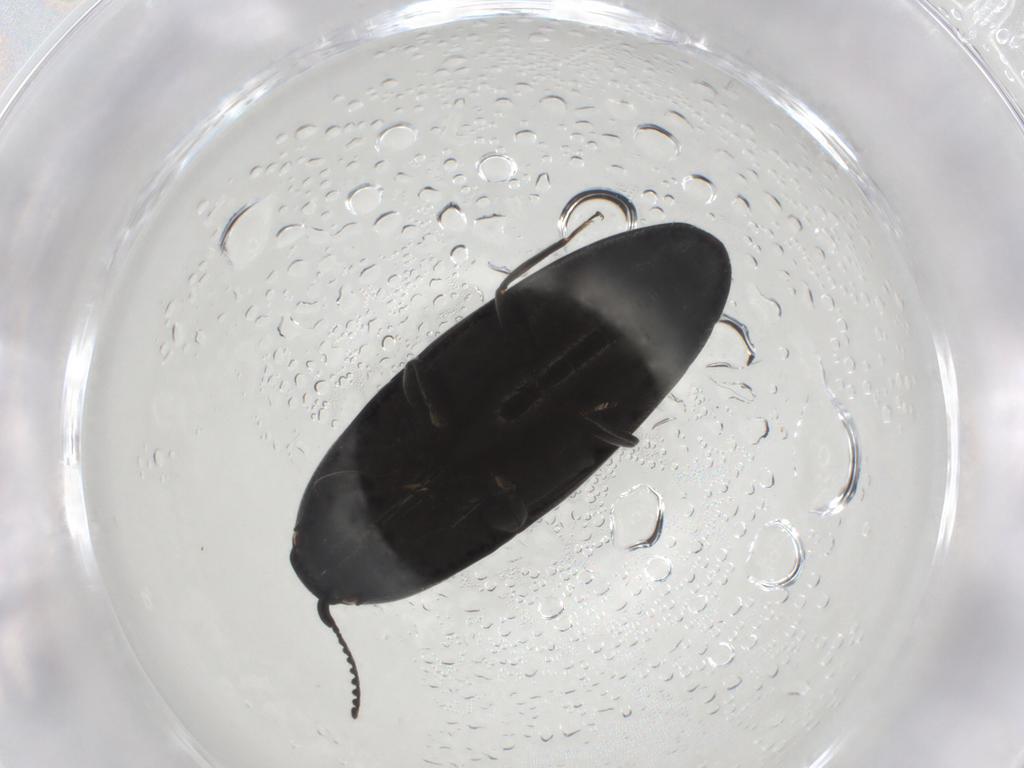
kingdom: Animalia
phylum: Arthropoda
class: Insecta
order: Coleoptera
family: Elateridae
